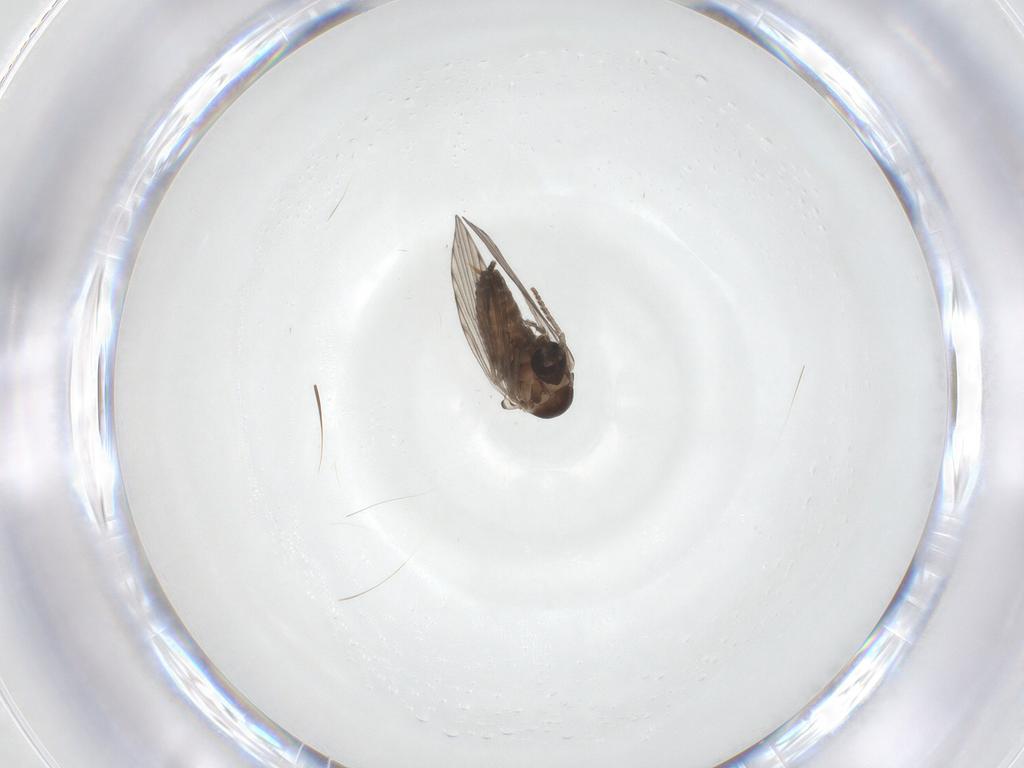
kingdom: Animalia
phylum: Arthropoda
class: Insecta
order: Diptera
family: Psychodidae
